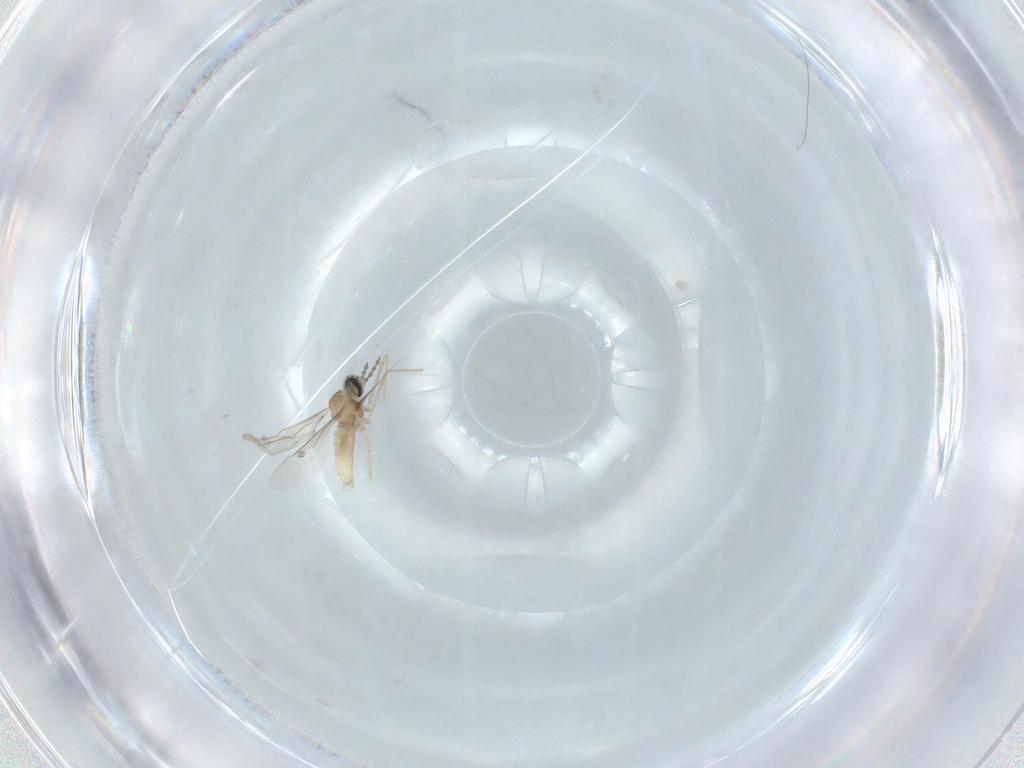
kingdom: Animalia
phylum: Arthropoda
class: Insecta
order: Diptera
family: Cecidomyiidae
